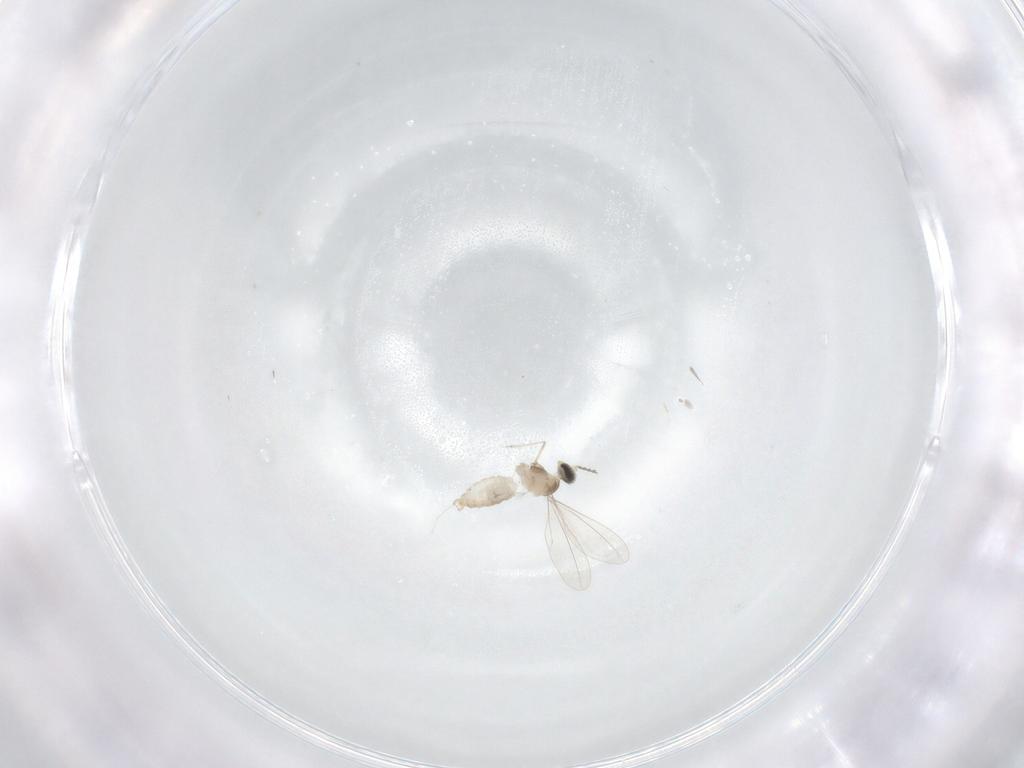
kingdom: Animalia
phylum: Arthropoda
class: Insecta
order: Diptera
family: Cecidomyiidae
